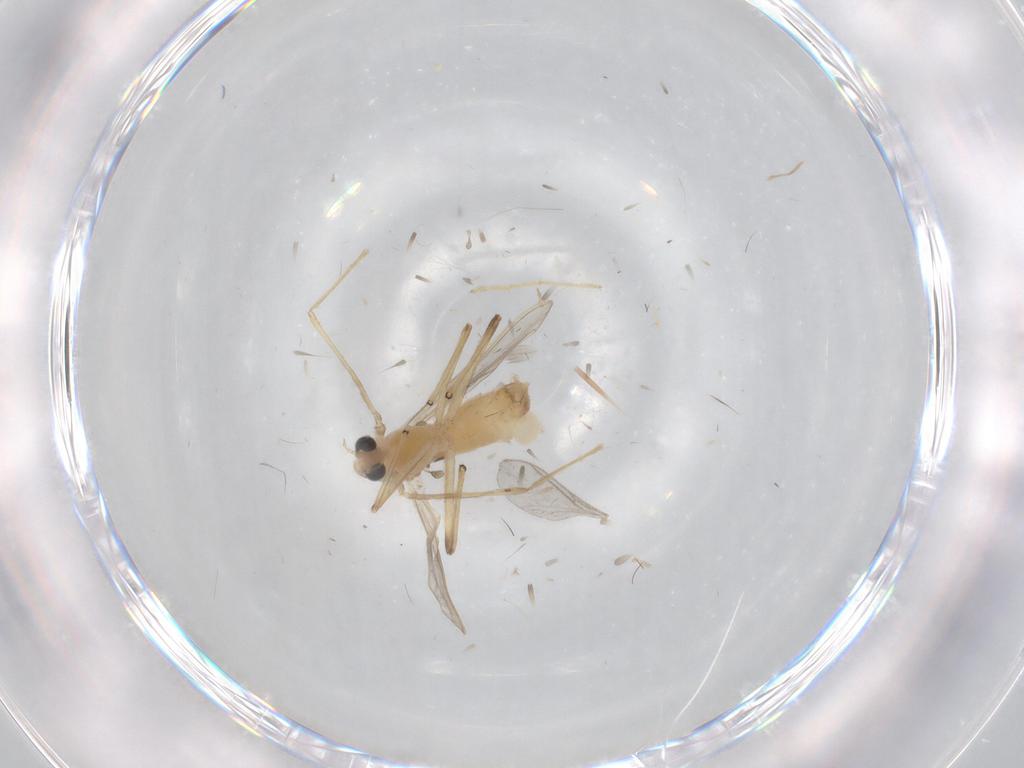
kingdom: Animalia
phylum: Arthropoda
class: Insecta
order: Diptera
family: Chironomidae
